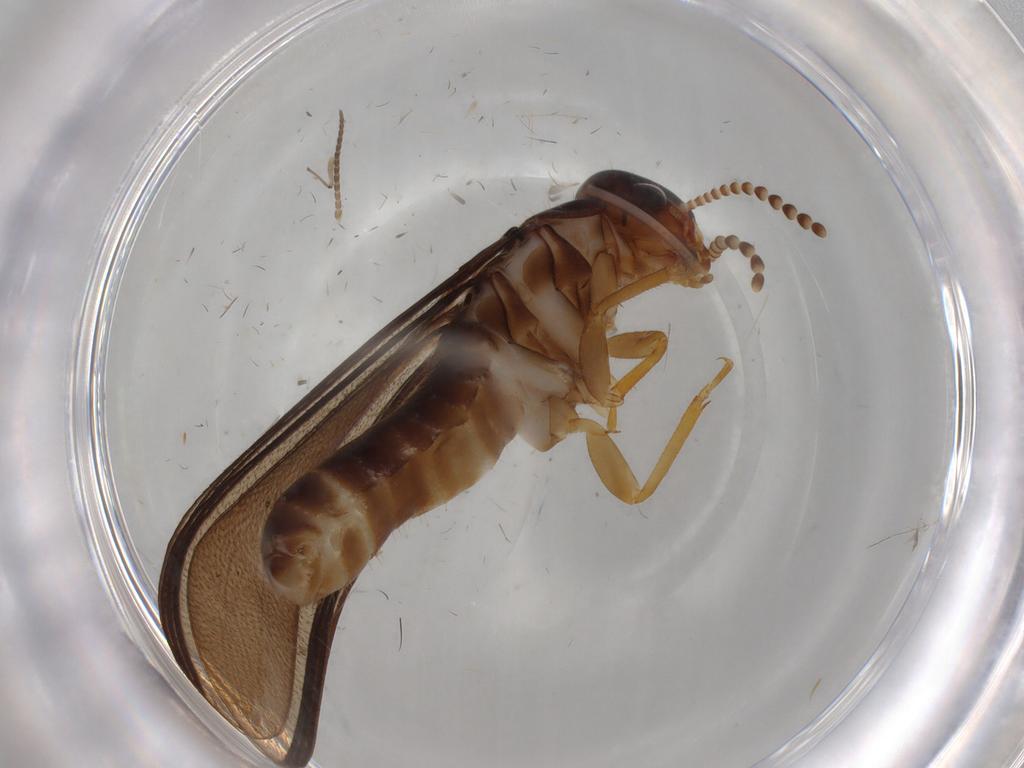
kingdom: Animalia
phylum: Arthropoda
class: Insecta
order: Blattodea
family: Kalotermitidae
